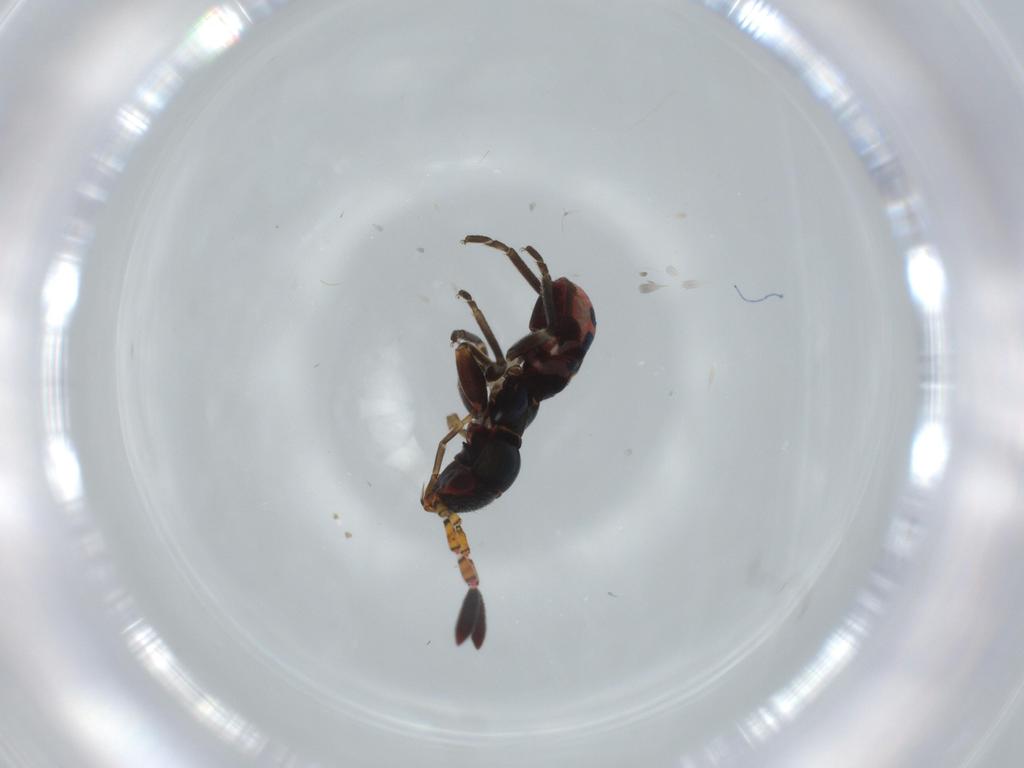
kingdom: Animalia
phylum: Arthropoda
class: Insecta
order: Hemiptera
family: Rhyparochromidae
